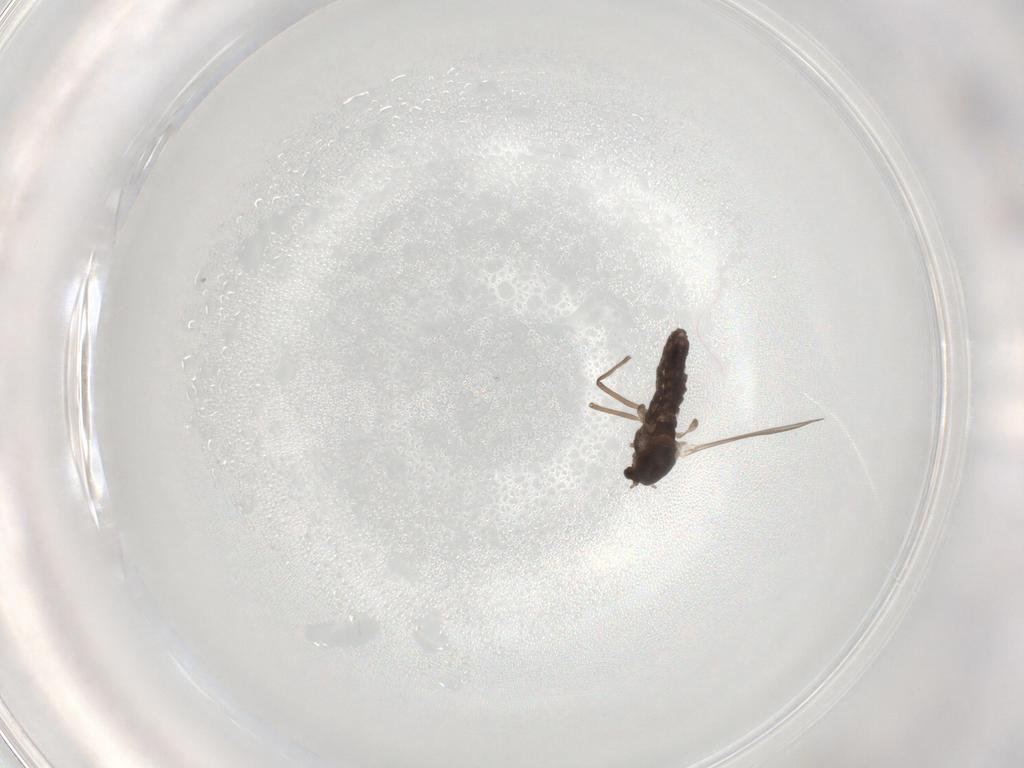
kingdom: Animalia
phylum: Arthropoda
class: Insecta
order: Diptera
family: Chironomidae
